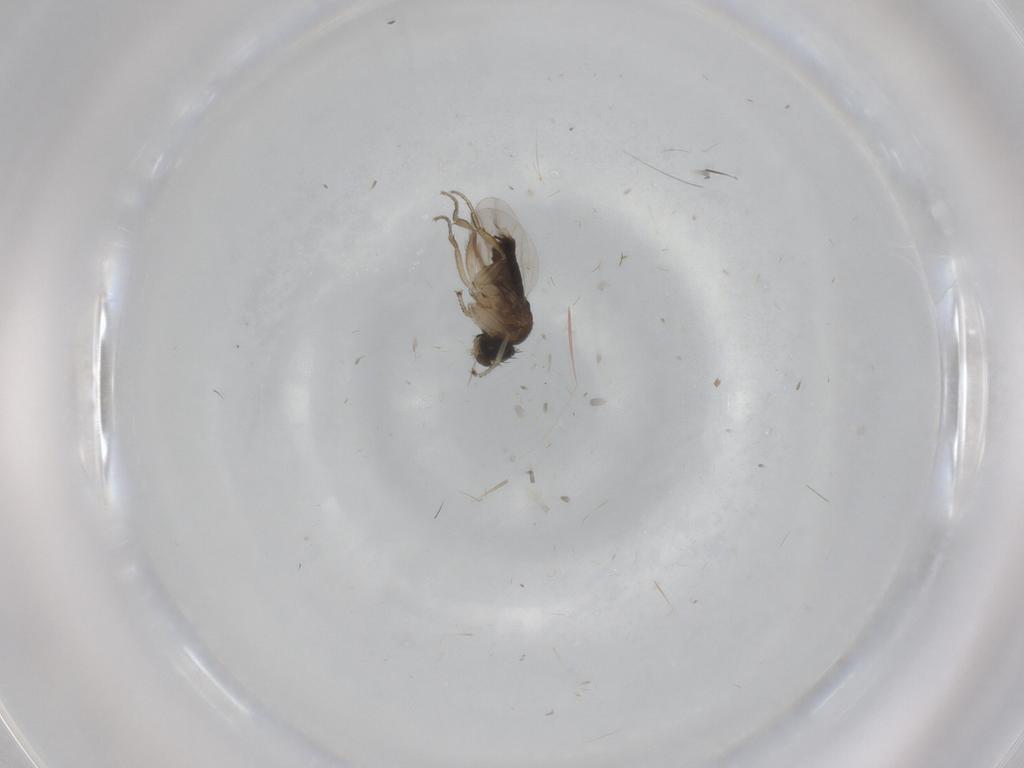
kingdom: Animalia
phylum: Arthropoda
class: Insecta
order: Diptera
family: Phoridae
